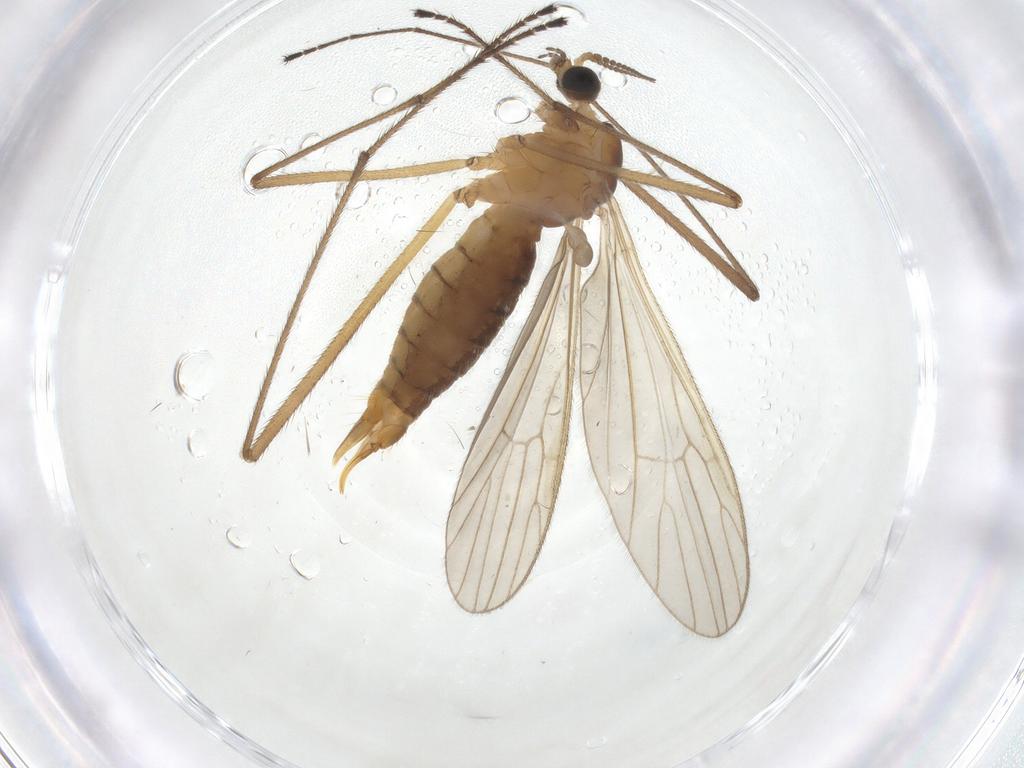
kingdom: Animalia
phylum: Arthropoda
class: Insecta
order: Diptera
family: Limoniidae
